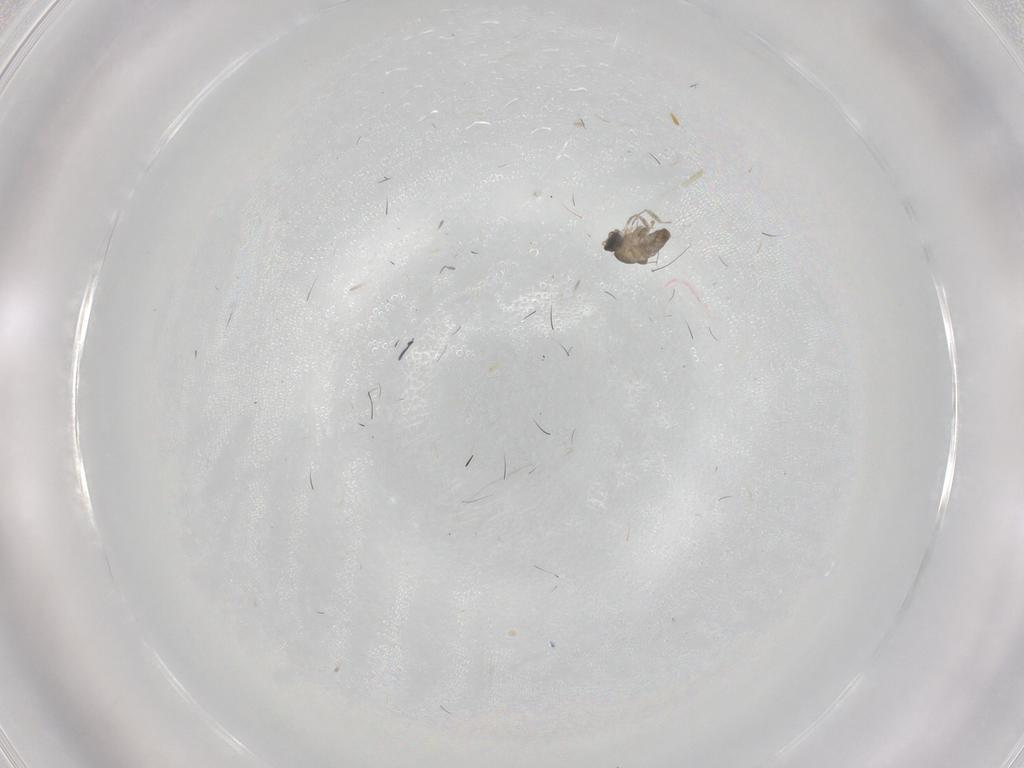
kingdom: Animalia
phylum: Arthropoda
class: Insecta
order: Diptera
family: Cecidomyiidae
